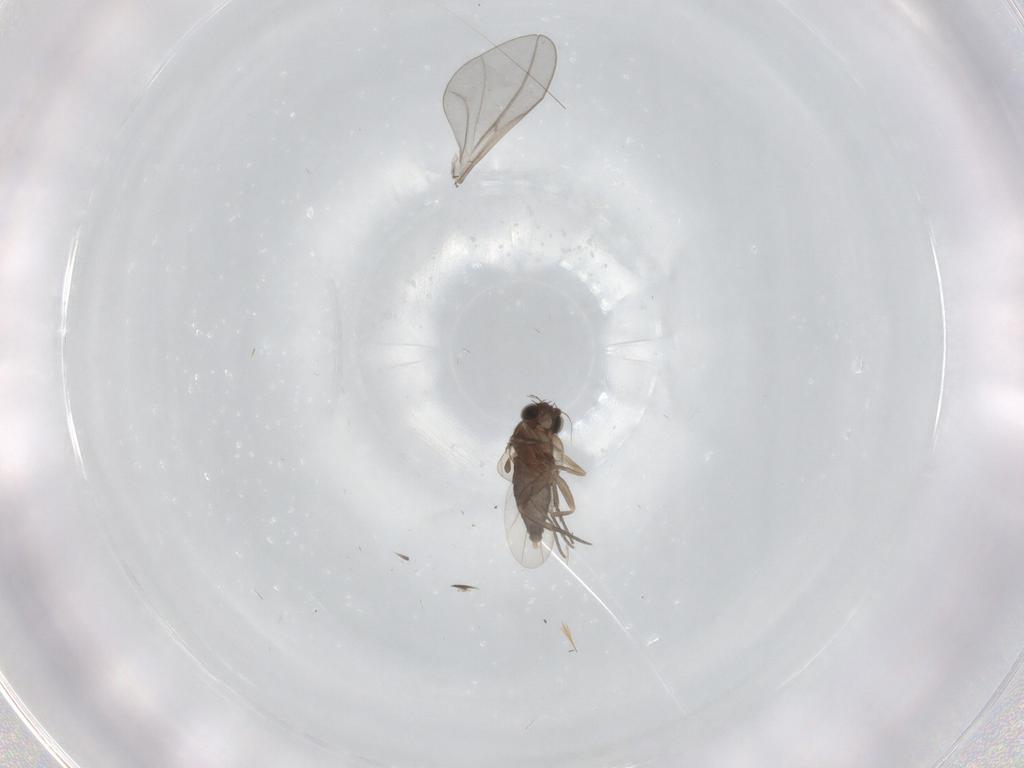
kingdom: Animalia
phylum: Arthropoda
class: Insecta
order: Diptera
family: Phoridae
